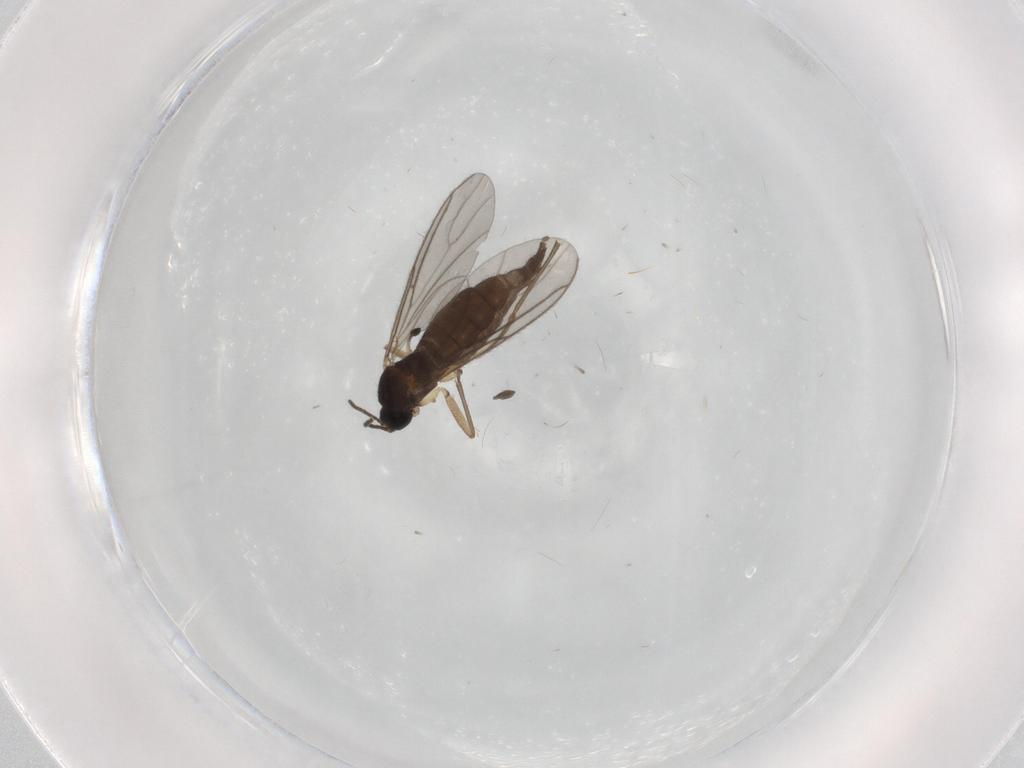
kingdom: Animalia
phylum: Arthropoda
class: Insecta
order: Diptera
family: Sciaridae
